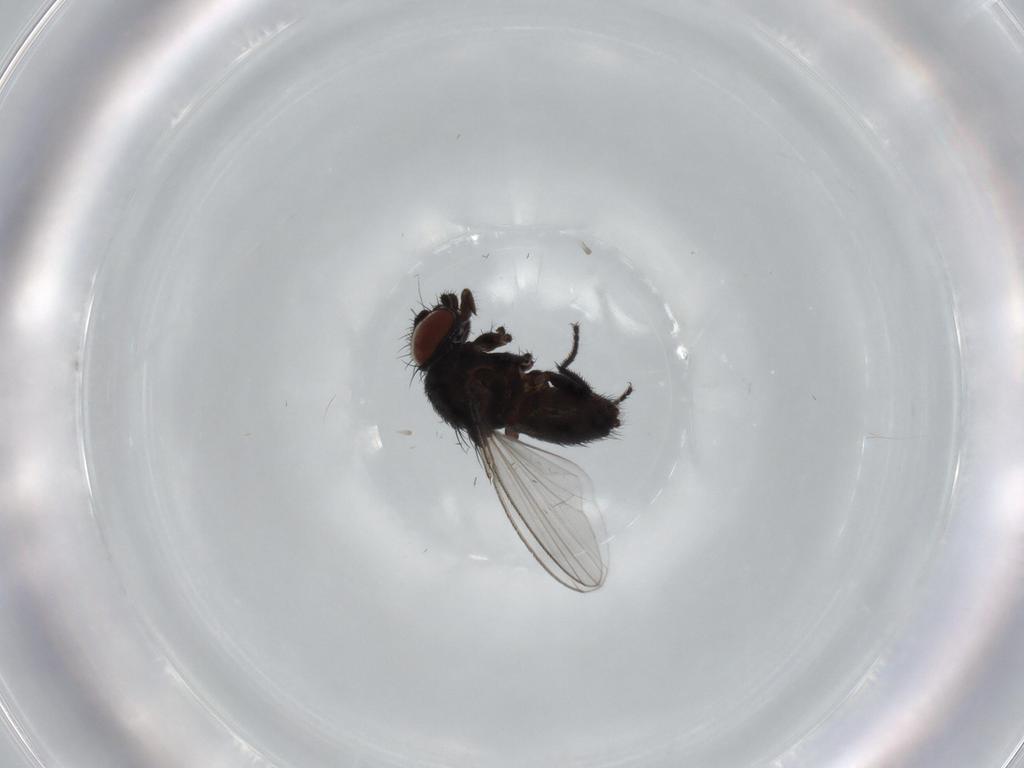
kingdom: Animalia
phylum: Arthropoda
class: Insecta
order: Diptera
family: Milichiidae
